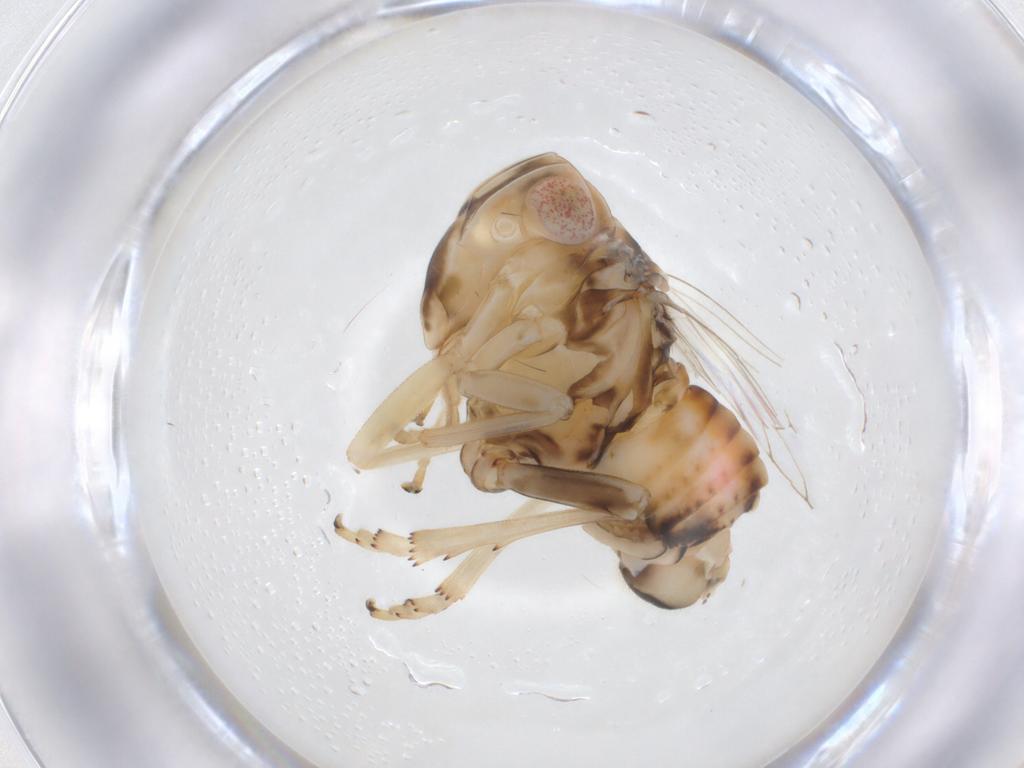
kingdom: Animalia
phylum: Arthropoda
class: Insecta
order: Hemiptera
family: Tropiduchidae
